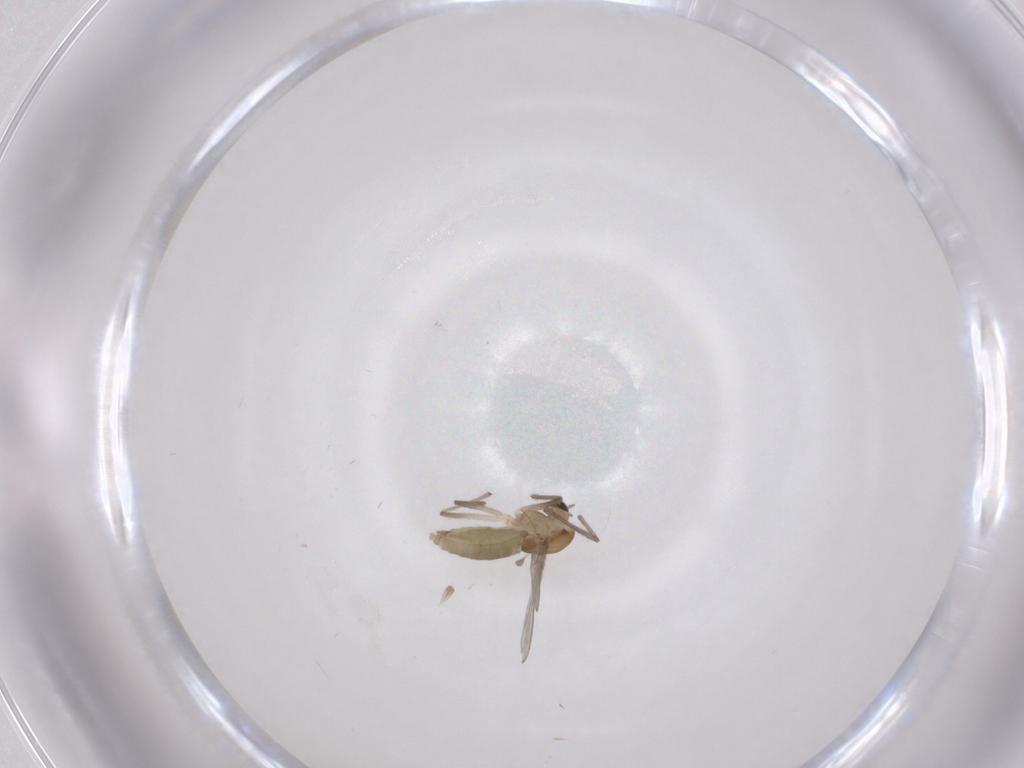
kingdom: Animalia
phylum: Arthropoda
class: Insecta
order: Diptera
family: Chironomidae
